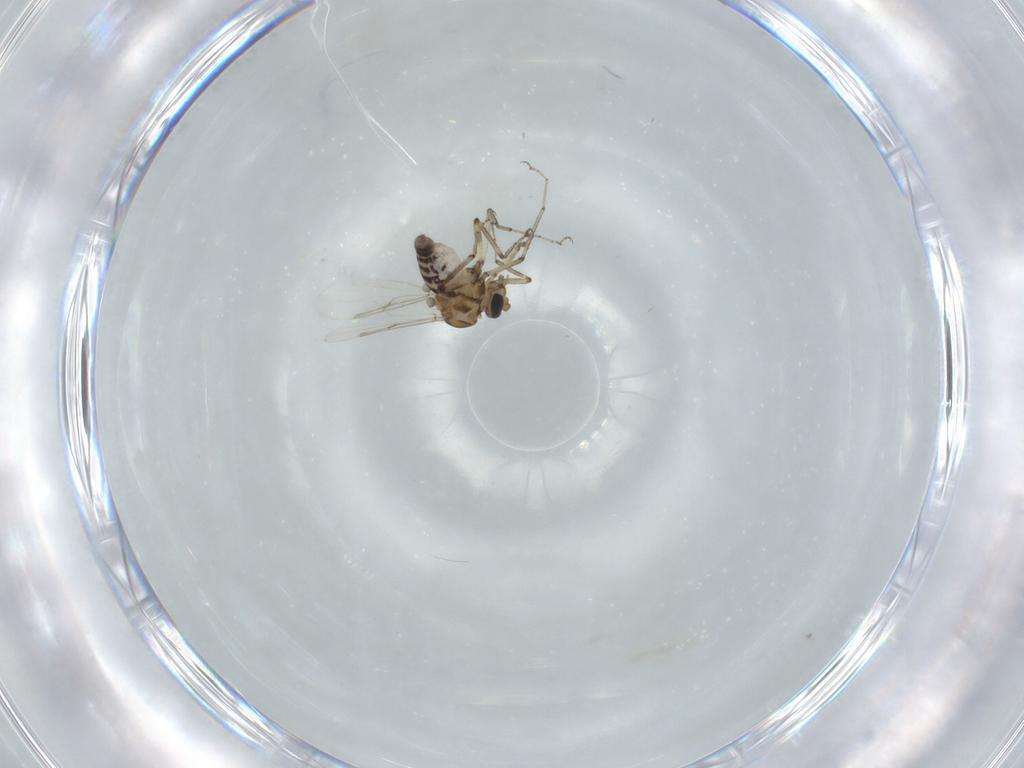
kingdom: Animalia
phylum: Arthropoda
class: Insecta
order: Diptera
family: Ceratopogonidae
